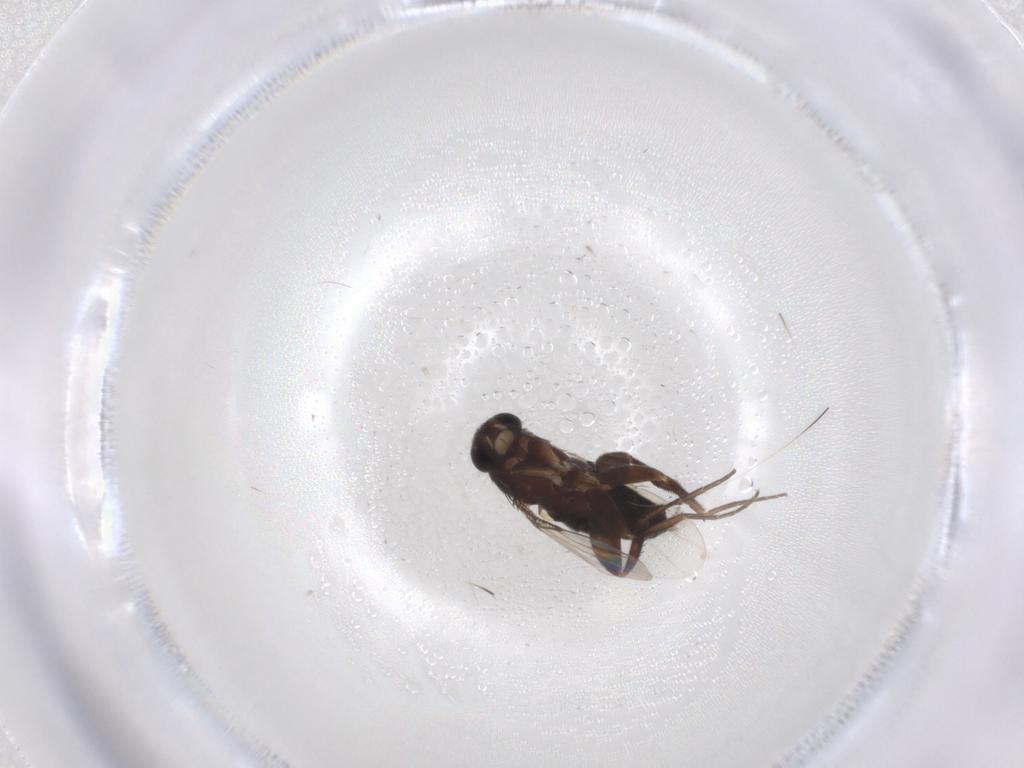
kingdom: Animalia
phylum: Arthropoda
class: Insecta
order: Diptera
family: Phoridae
